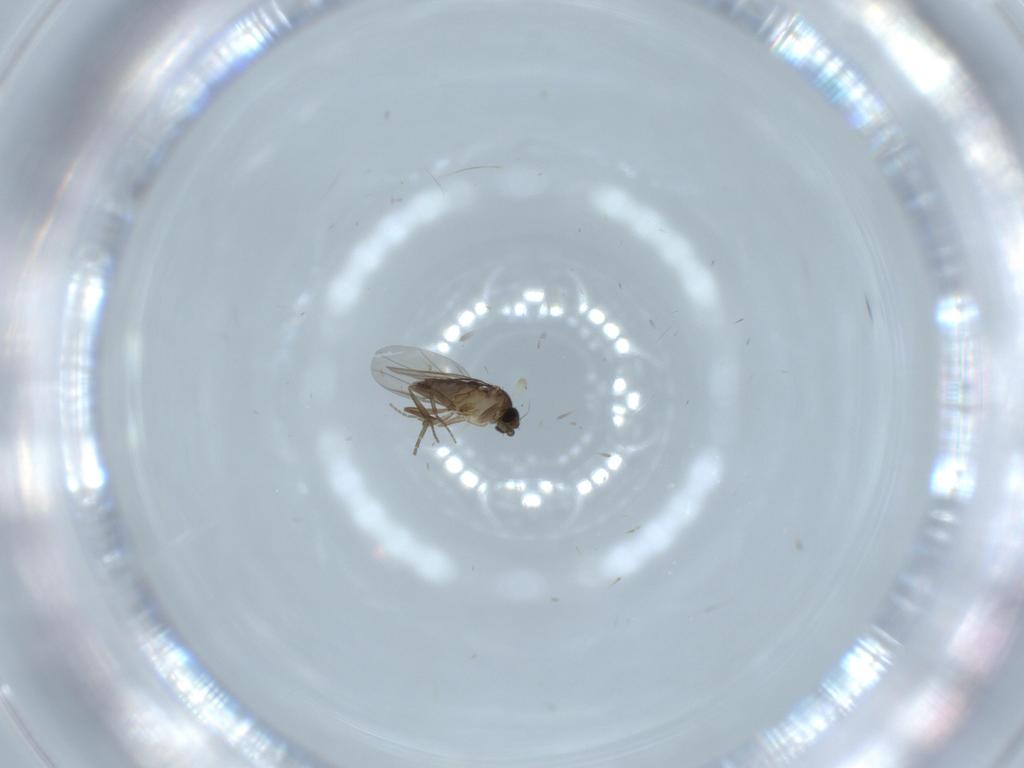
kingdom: Animalia
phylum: Arthropoda
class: Insecta
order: Diptera
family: Phoridae
